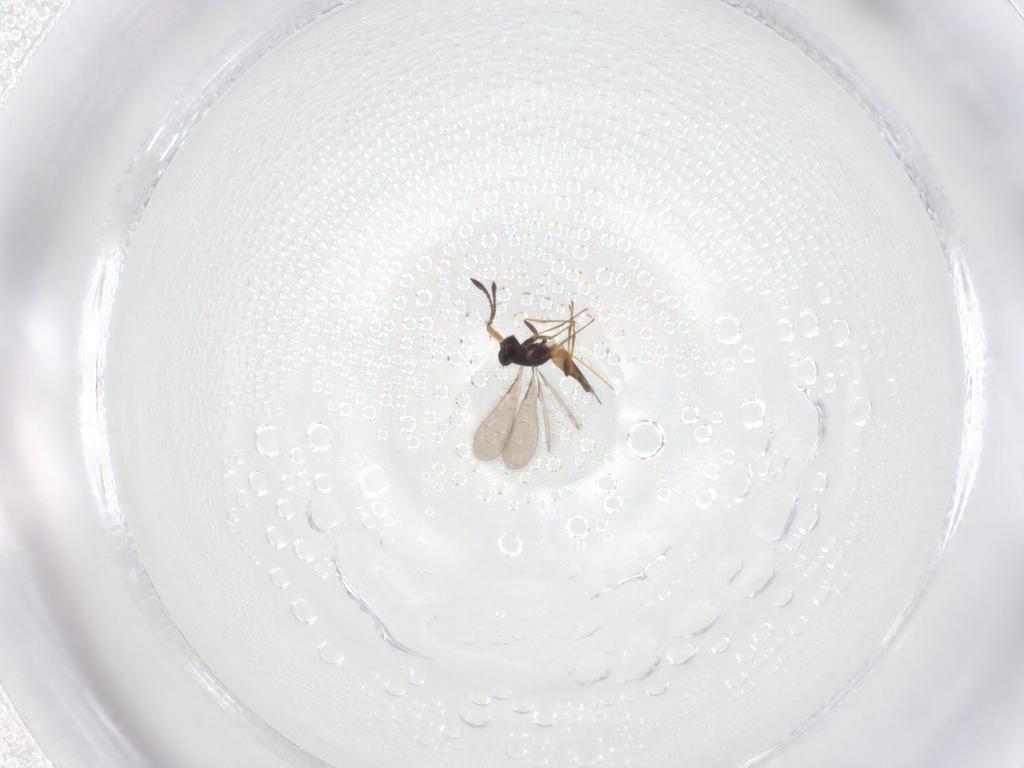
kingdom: Animalia
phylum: Arthropoda
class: Insecta
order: Hymenoptera
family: Mymaridae
